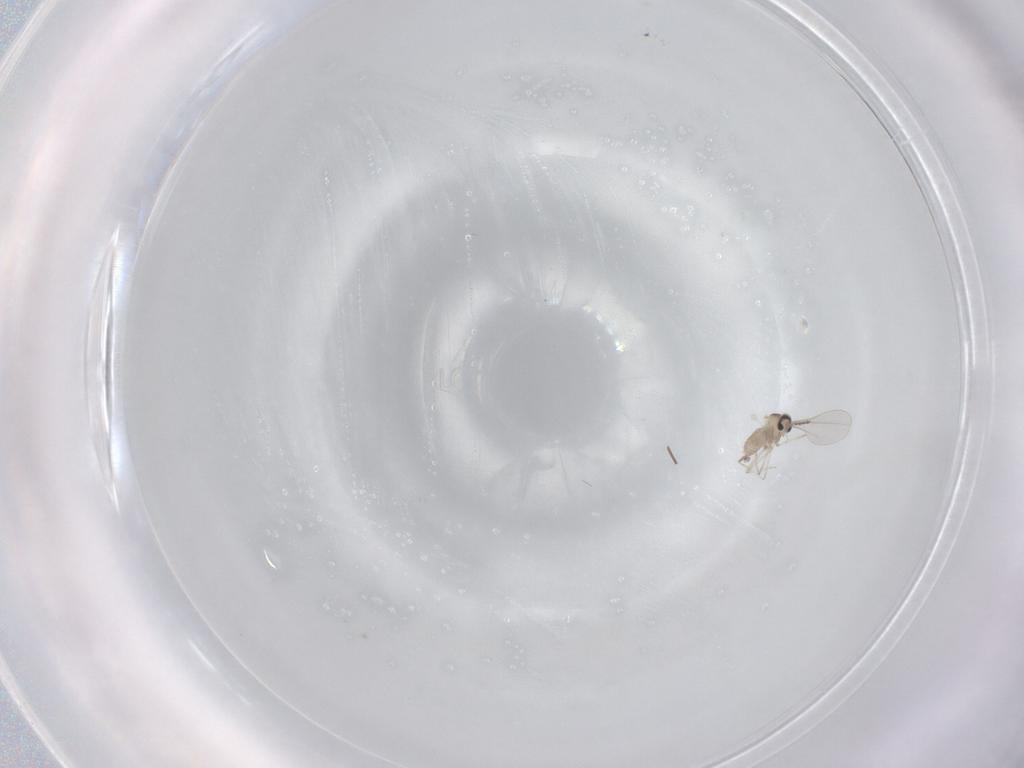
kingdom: Animalia
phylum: Arthropoda
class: Insecta
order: Diptera
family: Cecidomyiidae
